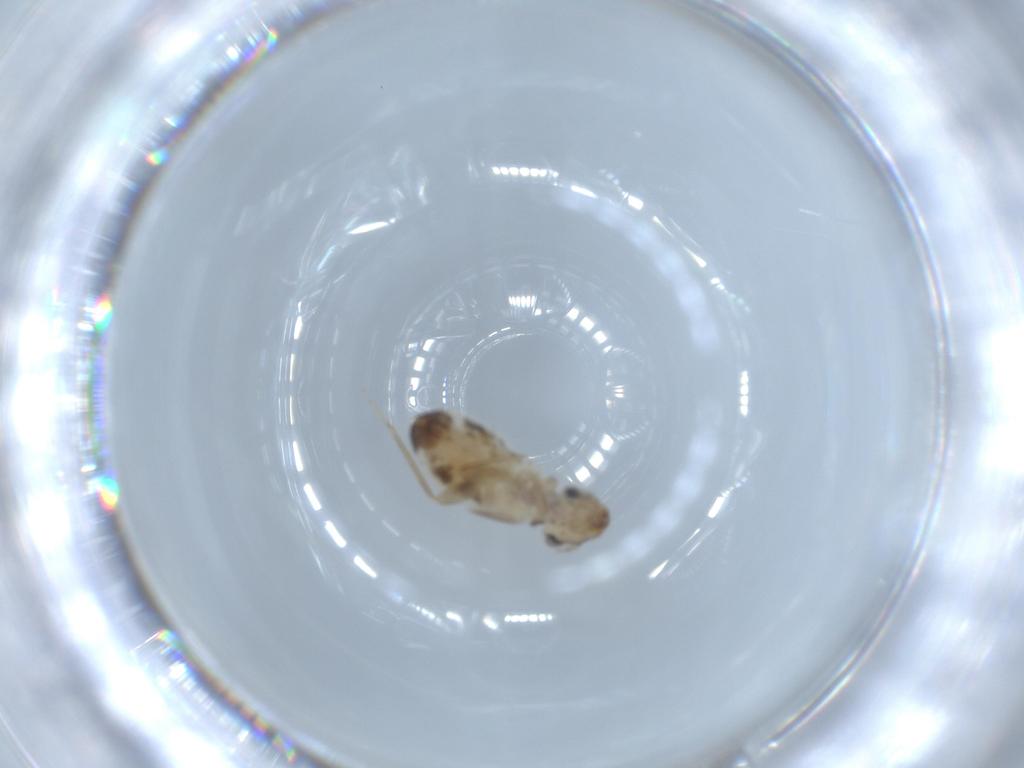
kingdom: Animalia
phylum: Arthropoda
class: Insecta
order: Psocodea
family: Lepidopsocidae
